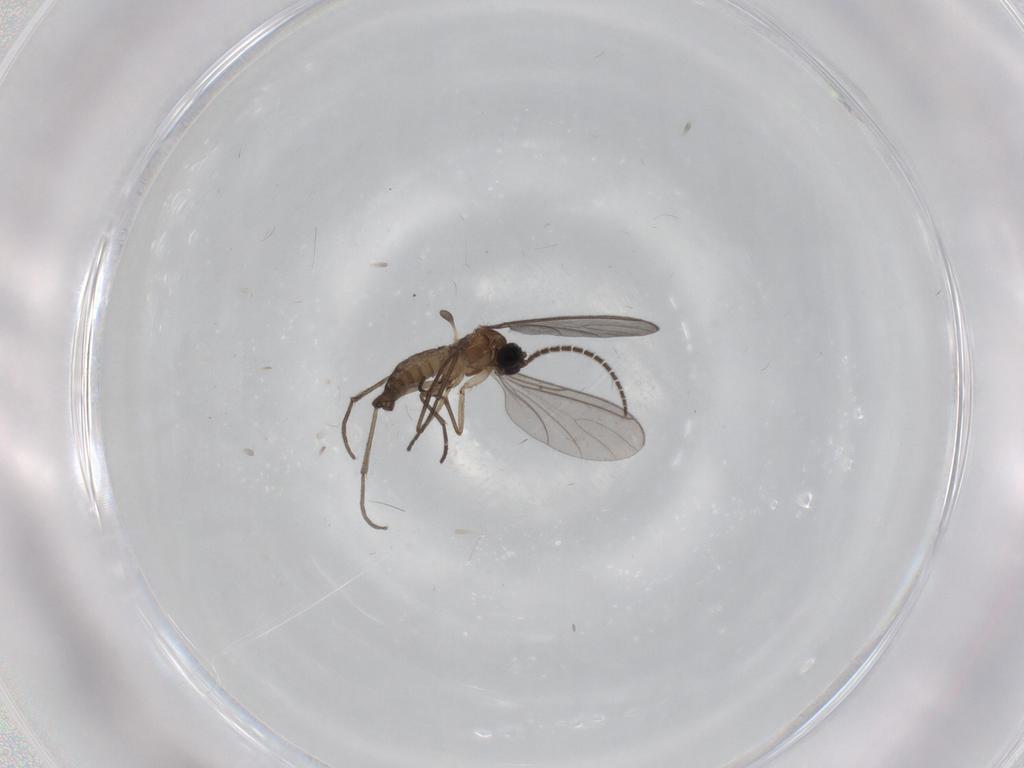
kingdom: Animalia
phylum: Arthropoda
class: Insecta
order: Diptera
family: Sciaridae
